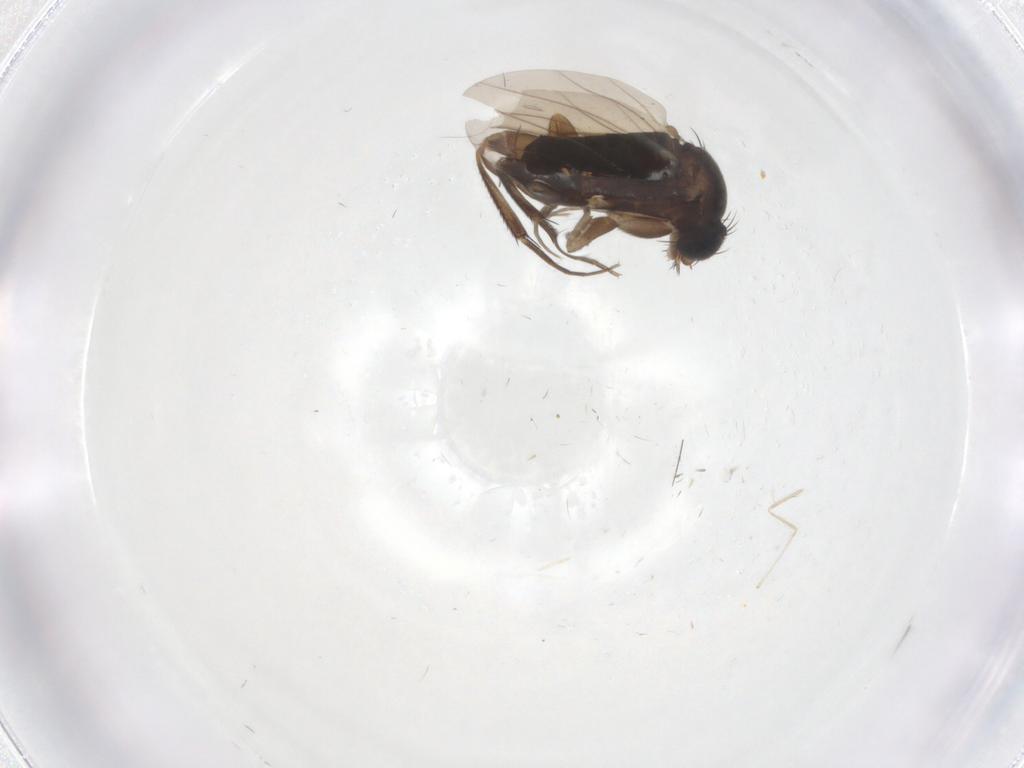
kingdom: Animalia
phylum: Arthropoda
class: Insecta
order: Diptera
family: Phoridae
